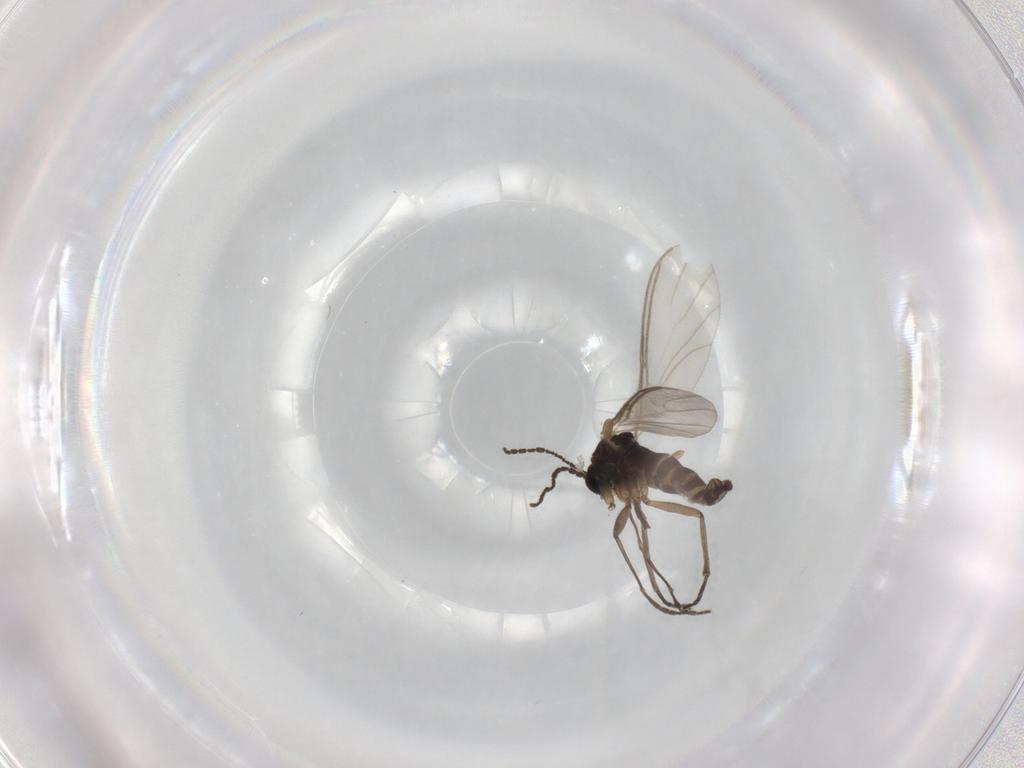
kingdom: Animalia
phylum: Arthropoda
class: Insecta
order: Diptera
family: Sciaridae
